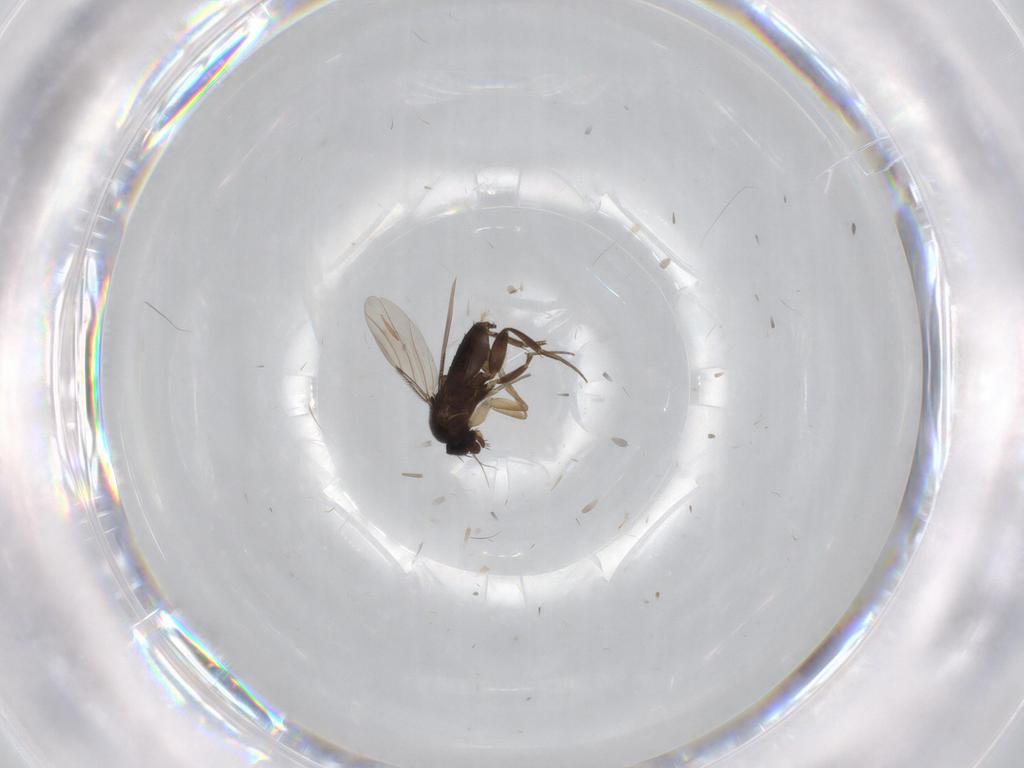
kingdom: Animalia
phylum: Arthropoda
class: Insecta
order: Diptera
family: Phoridae
